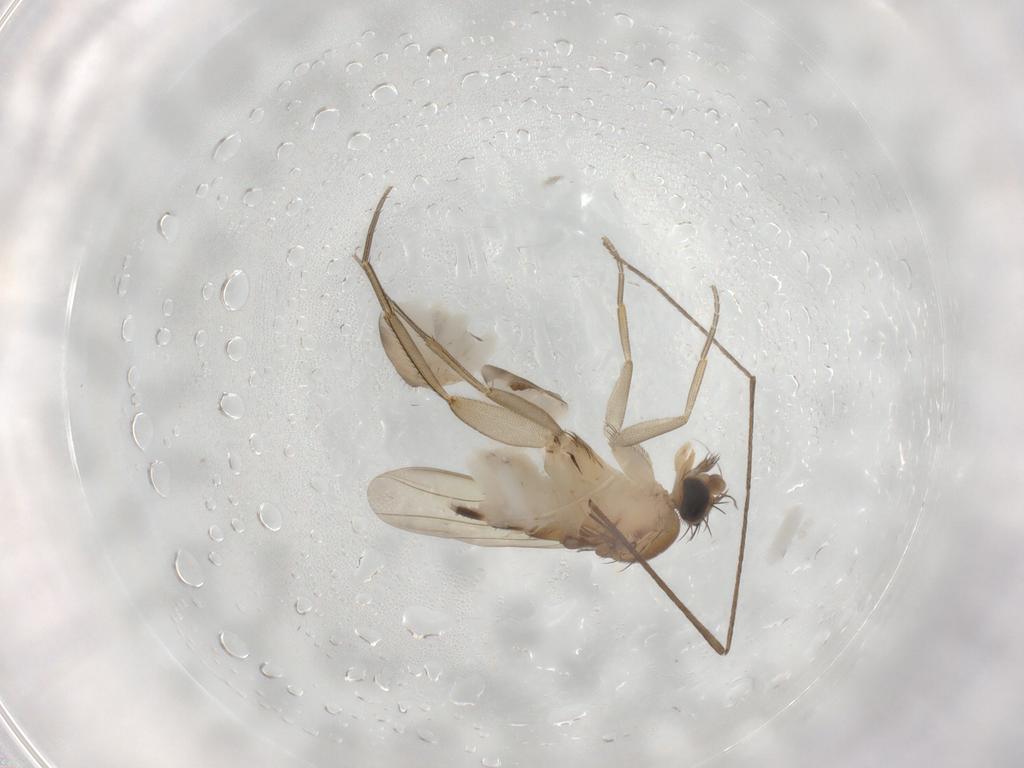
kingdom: Animalia
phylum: Arthropoda
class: Insecta
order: Diptera
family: Phoridae
